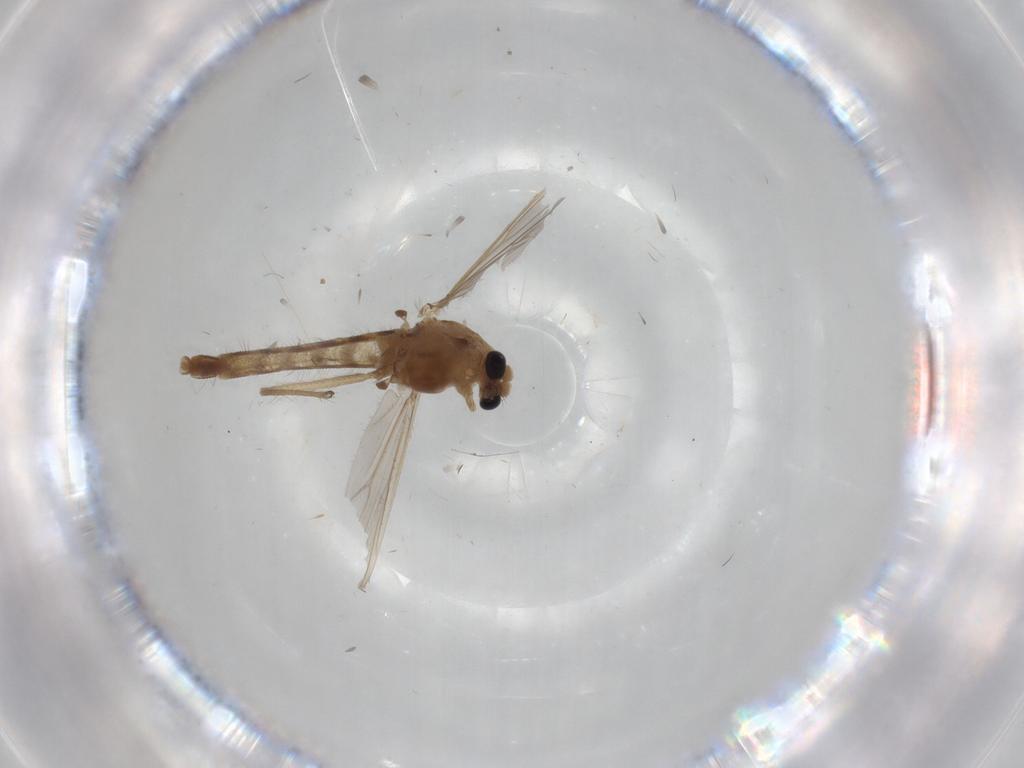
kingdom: Animalia
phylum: Arthropoda
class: Insecta
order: Diptera
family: Chironomidae
